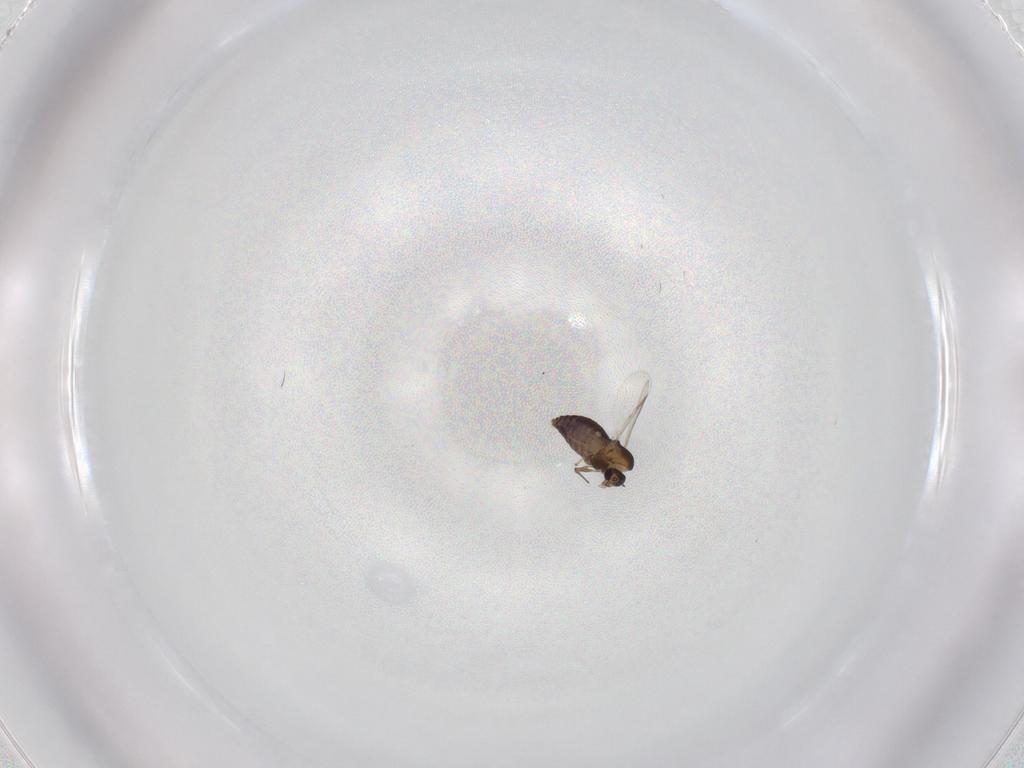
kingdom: Animalia
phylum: Arthropoda
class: Insecta
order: Diptera
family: Chironomidae
